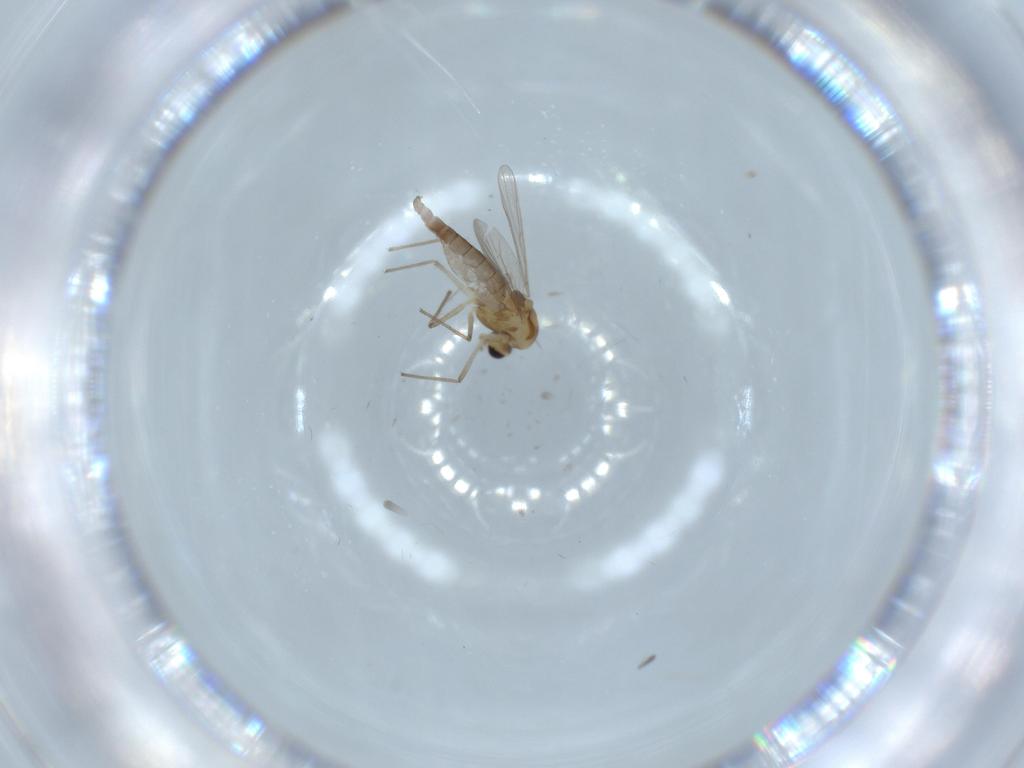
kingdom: Animalia
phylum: Arthropoda
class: Insecta
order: Diptera
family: Chironomidae
